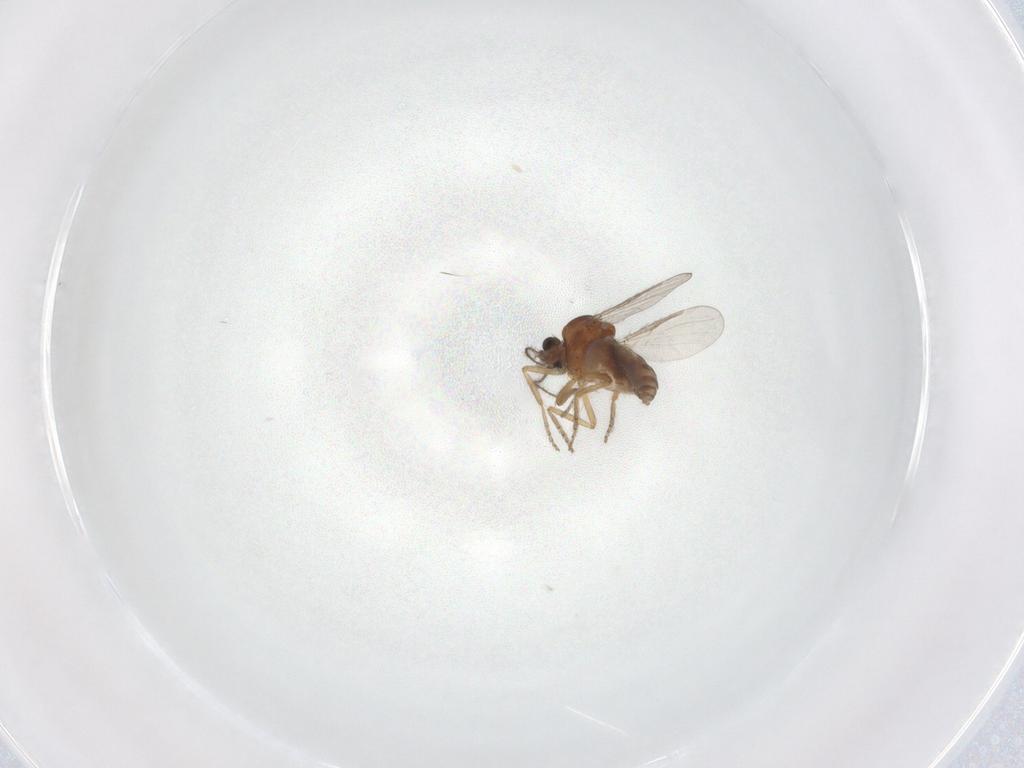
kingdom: Animalia
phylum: Arthropoda
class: Insecta
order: Diptera
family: Ceratopogonidae
